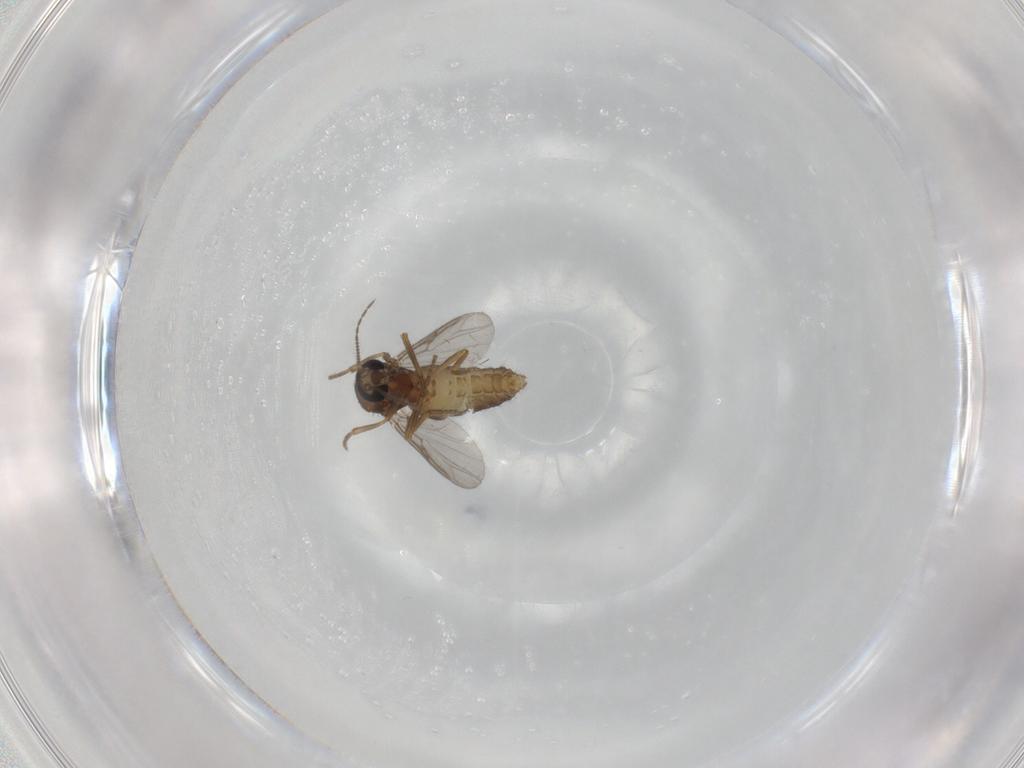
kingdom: Animalia
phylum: Arthropoda
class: Insecta
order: Diptera
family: Ceratopogonidae
